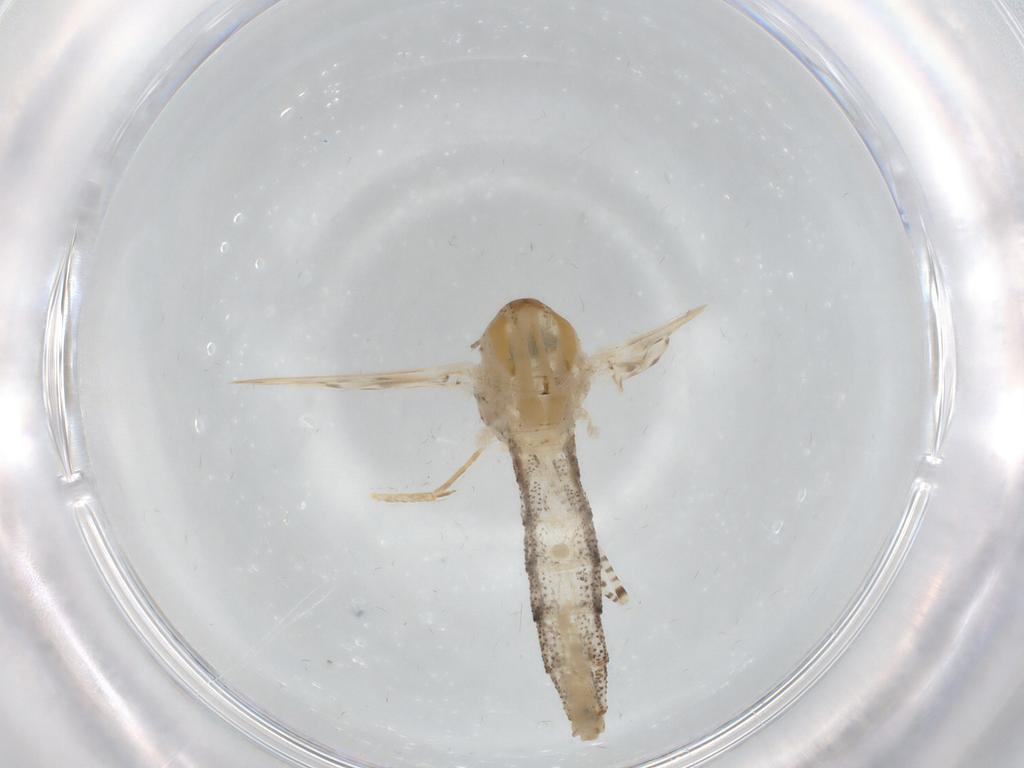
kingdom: Animalia
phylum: Arthropoda
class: Insecta
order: Diptera
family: Chaoboridae
